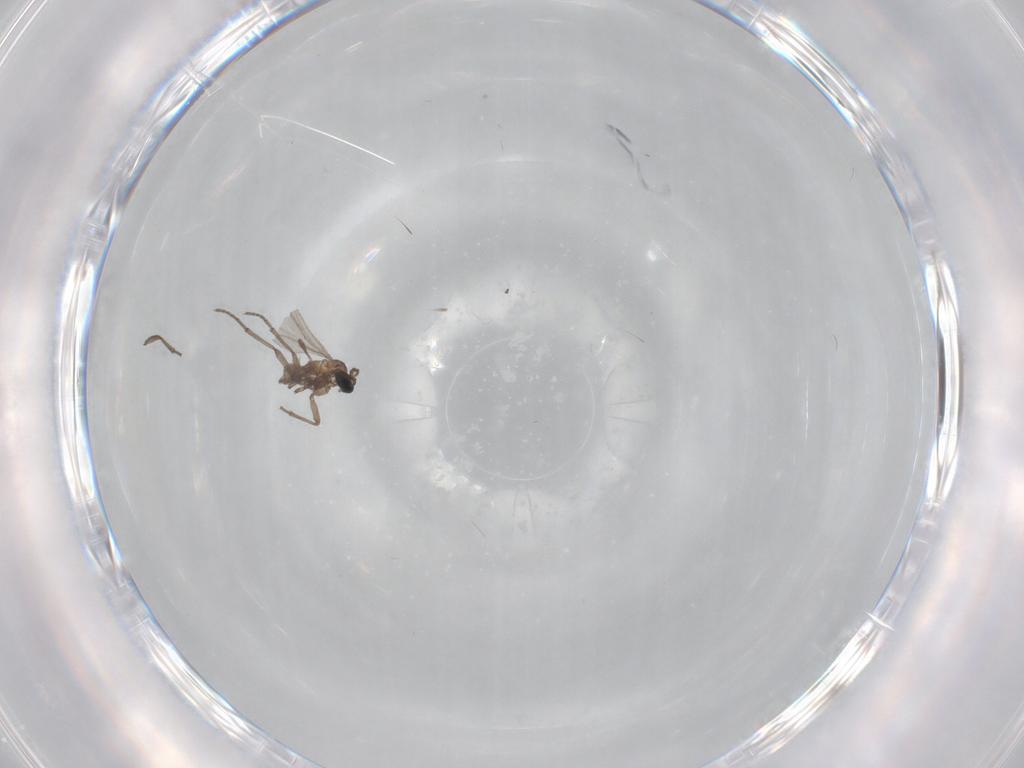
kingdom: Animalia
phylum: Arthropoda
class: Insecta
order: Diptera
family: Sciaridae
